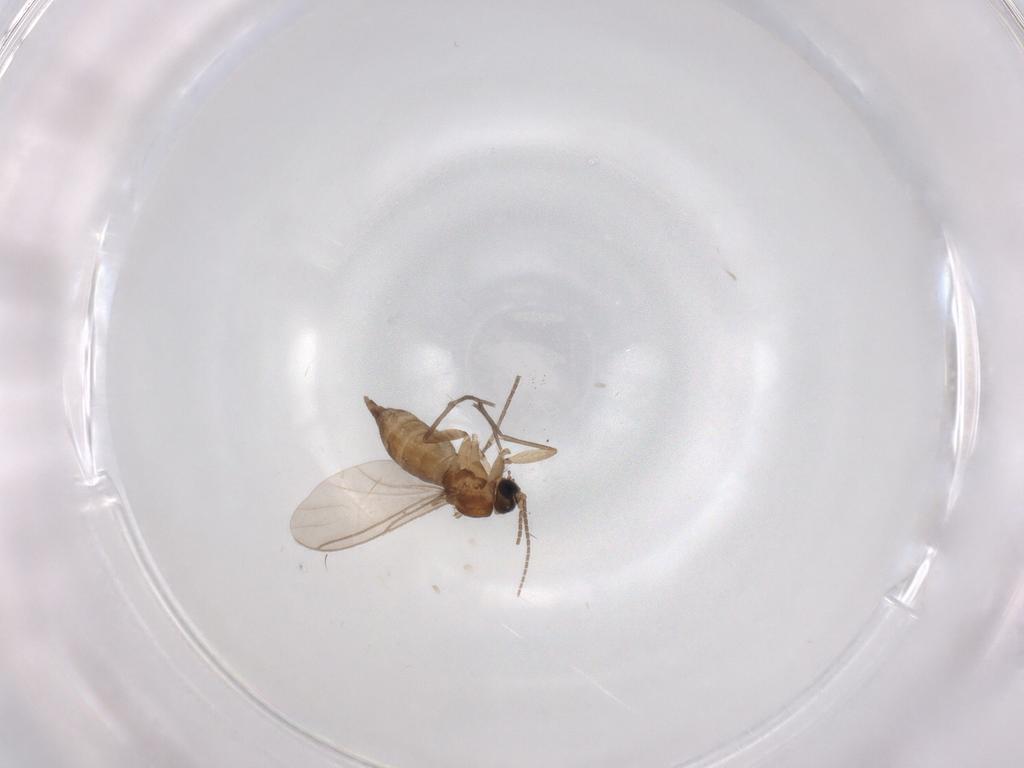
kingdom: Animalia
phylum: Arthropoda
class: Insecta
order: Diptera
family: Sciaridae
